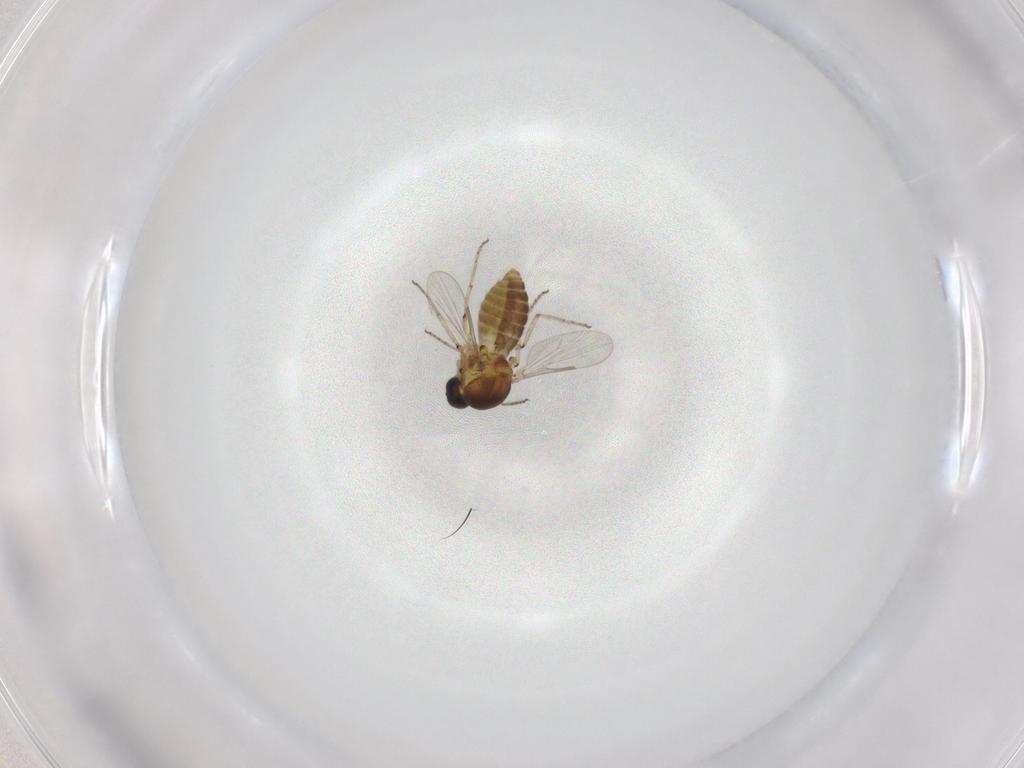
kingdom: Animalia
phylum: Arthropoda
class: Insecta
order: Diptera
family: Ceratopogonidae
